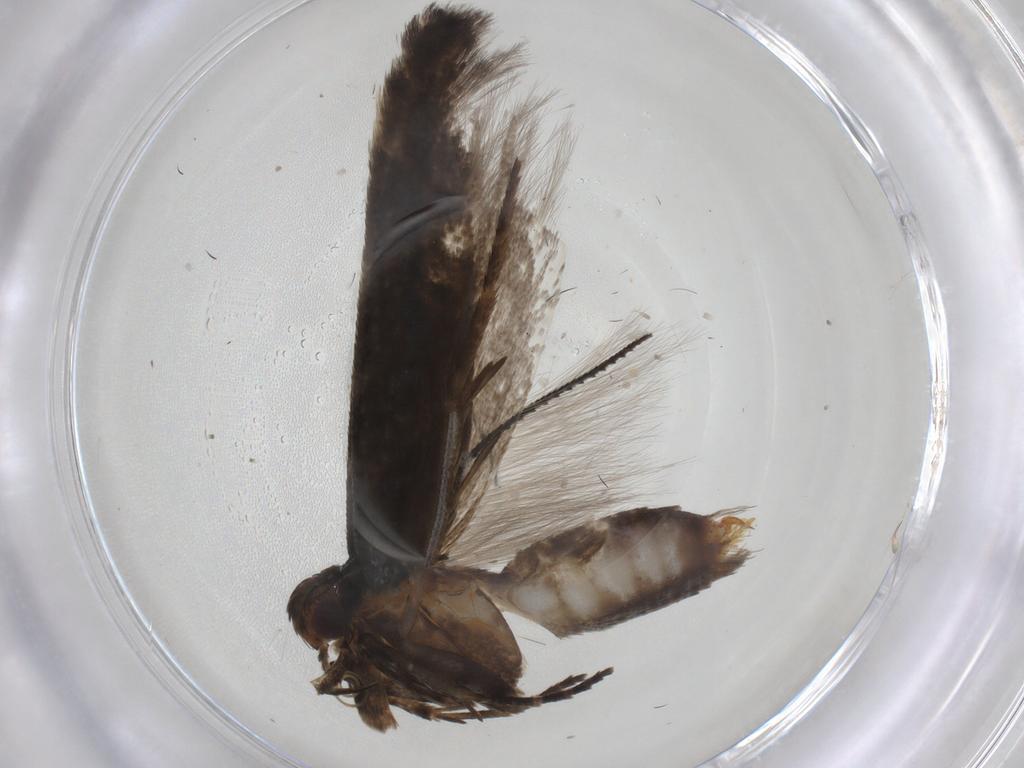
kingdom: Animalia
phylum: Arthropoda
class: Insecta
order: Lepidoptera
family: Gelechiidae
